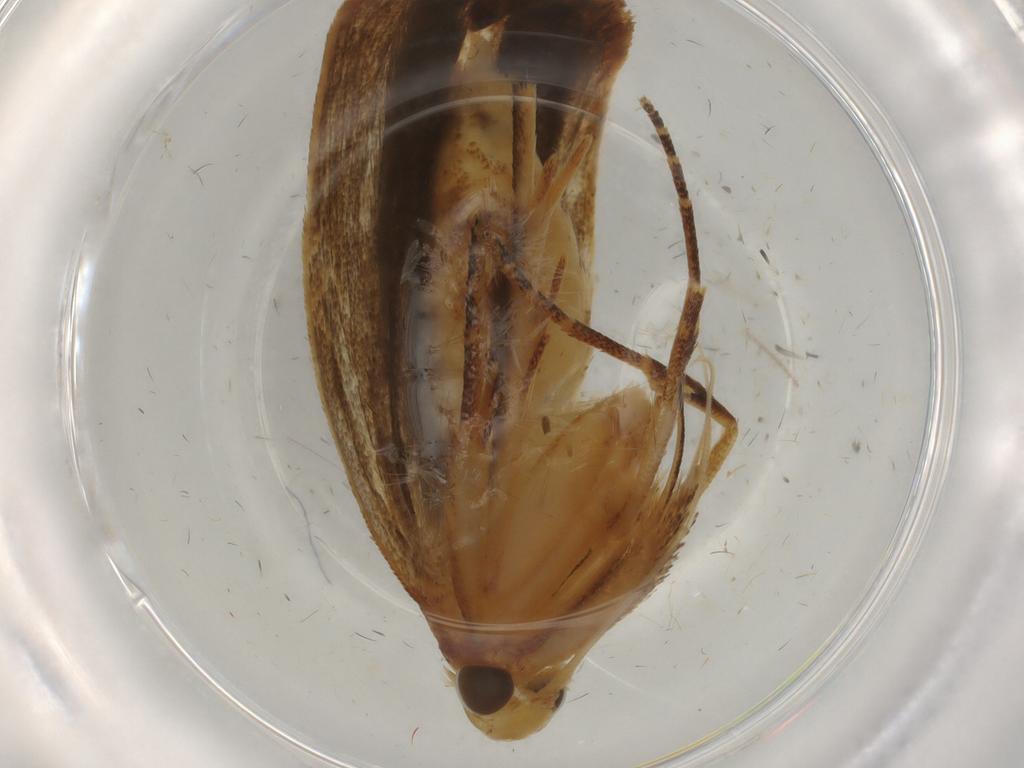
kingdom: Animalia
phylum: Arthropoda
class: Insecta
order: Lepidoptera
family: Gelechiidae
